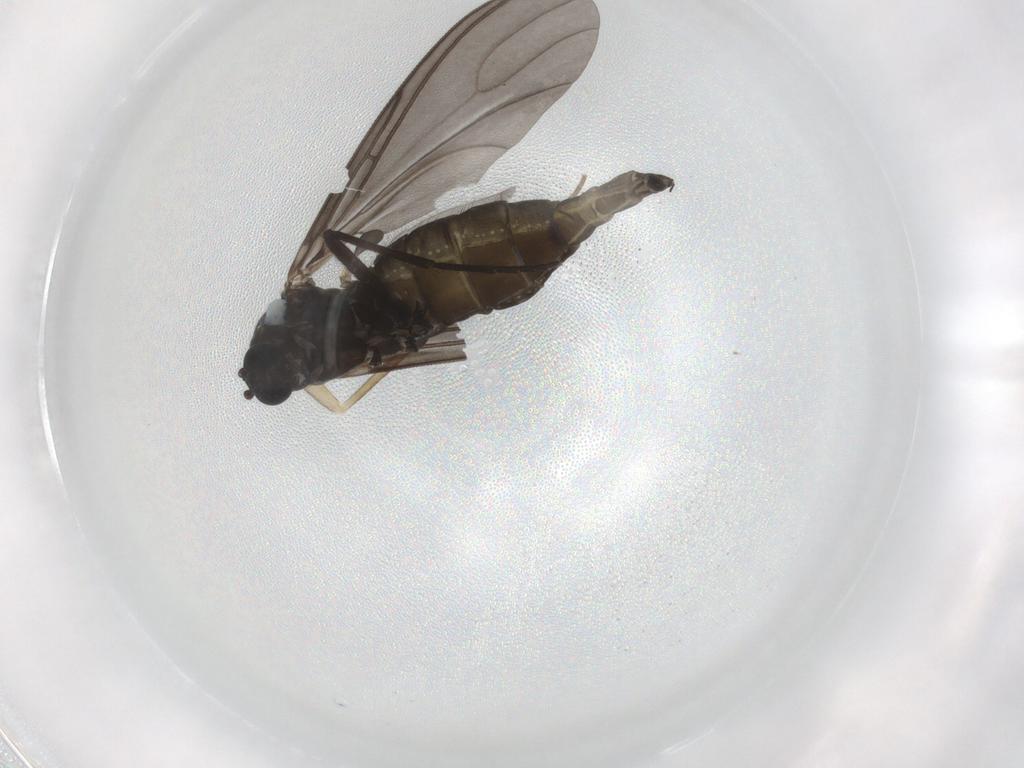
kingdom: Animalia
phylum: Arthropoda
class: Insecta
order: Diptera
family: Sciaridae
